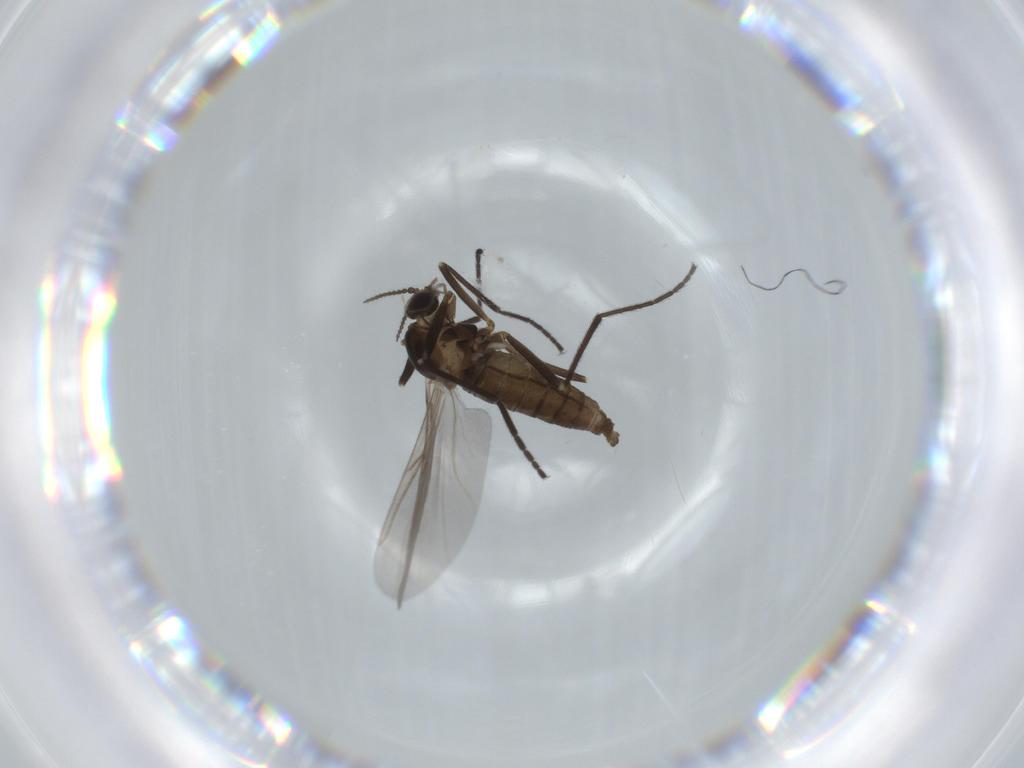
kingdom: Animalia
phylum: Arthropoda
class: Insecta
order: Diptera
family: Cecidomyiidae
